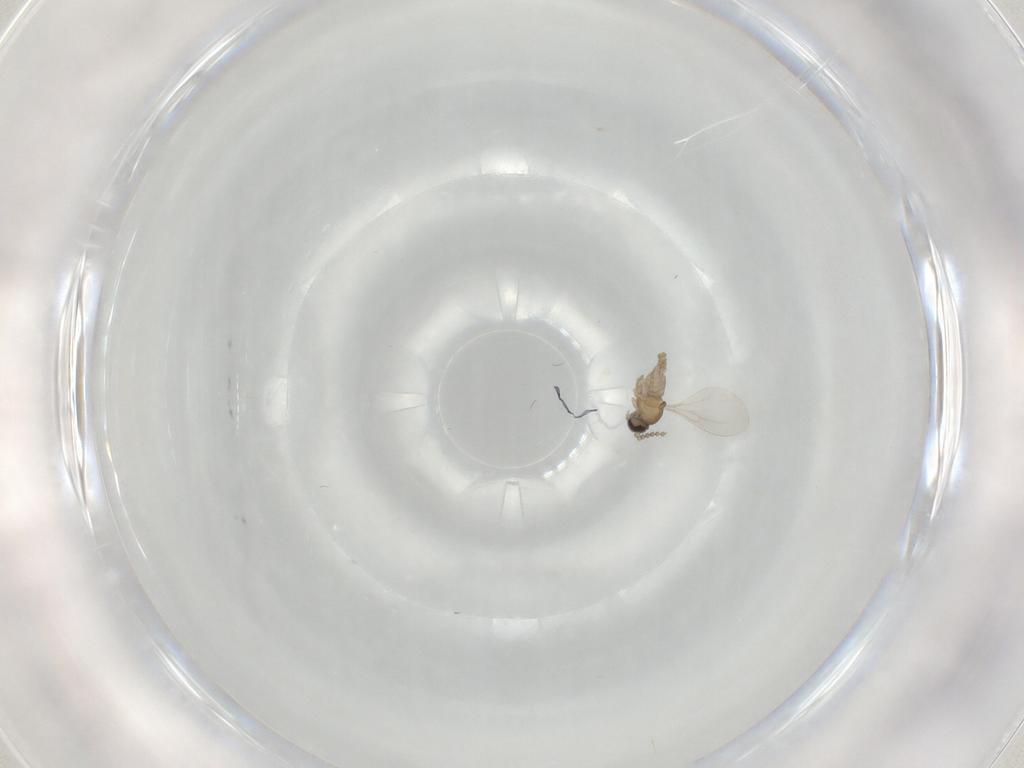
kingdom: Animalia
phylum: Arthropoda
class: Insecta
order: Diptera
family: Cecidomyiidae
